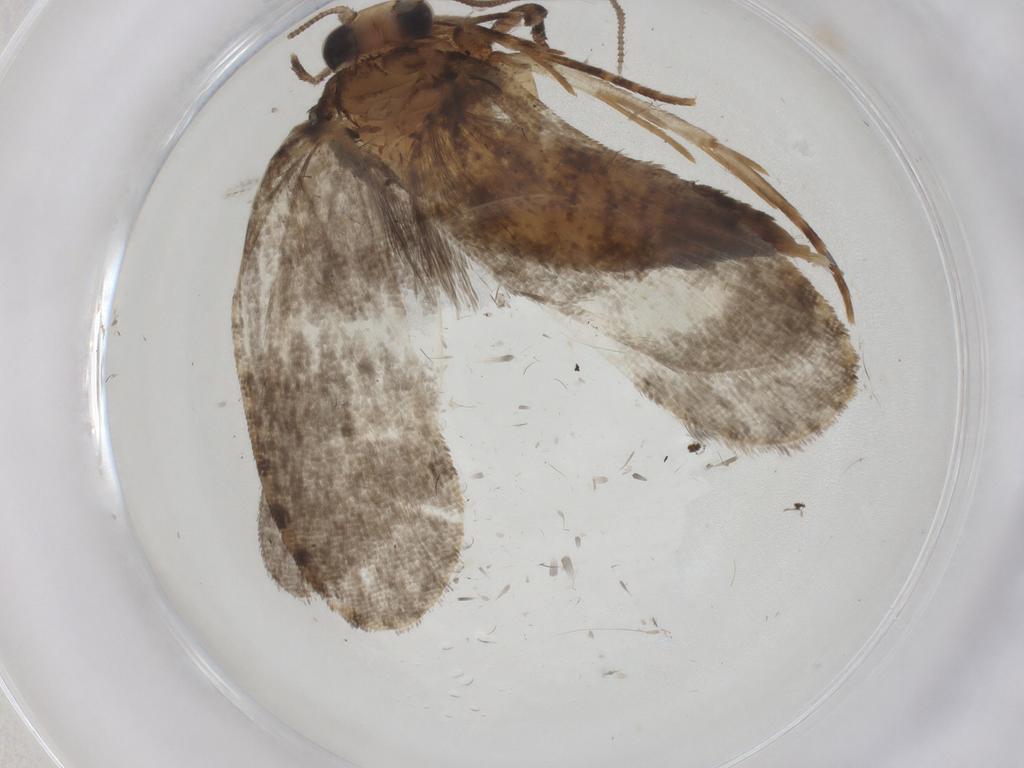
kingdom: Animalia
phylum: Arthropoda
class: Insecta
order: Lepidoptera
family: Tineidae
